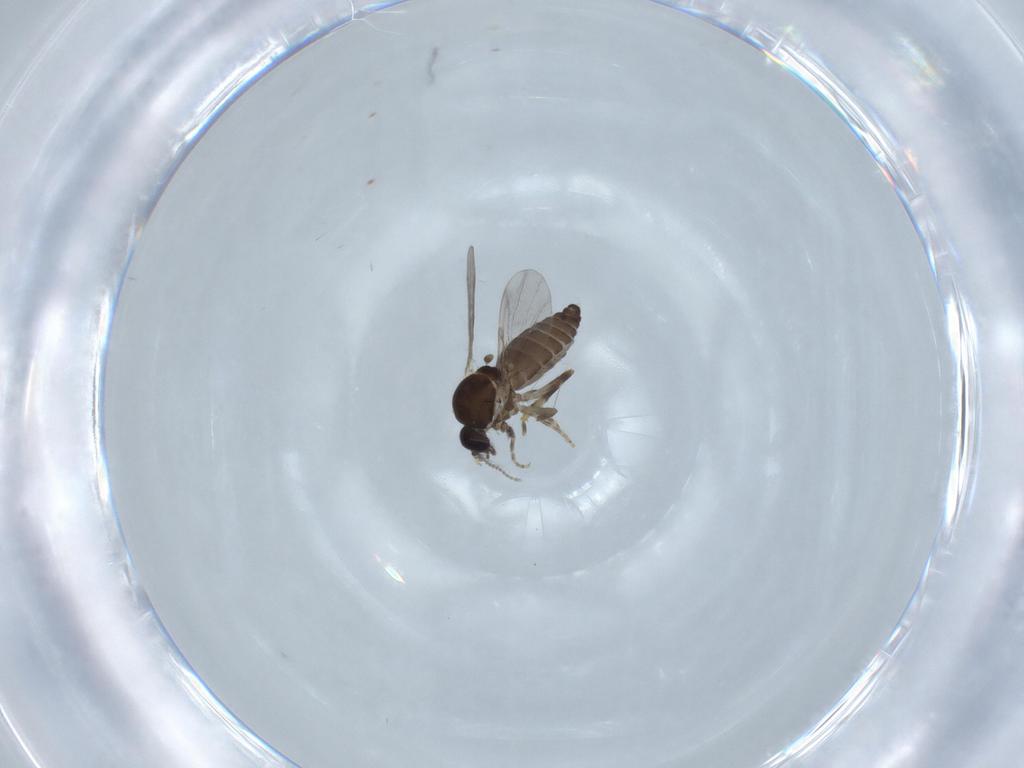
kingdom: Animalia
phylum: Arthropoda
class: Insecta
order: Diptera
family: Ceratopogonidae
